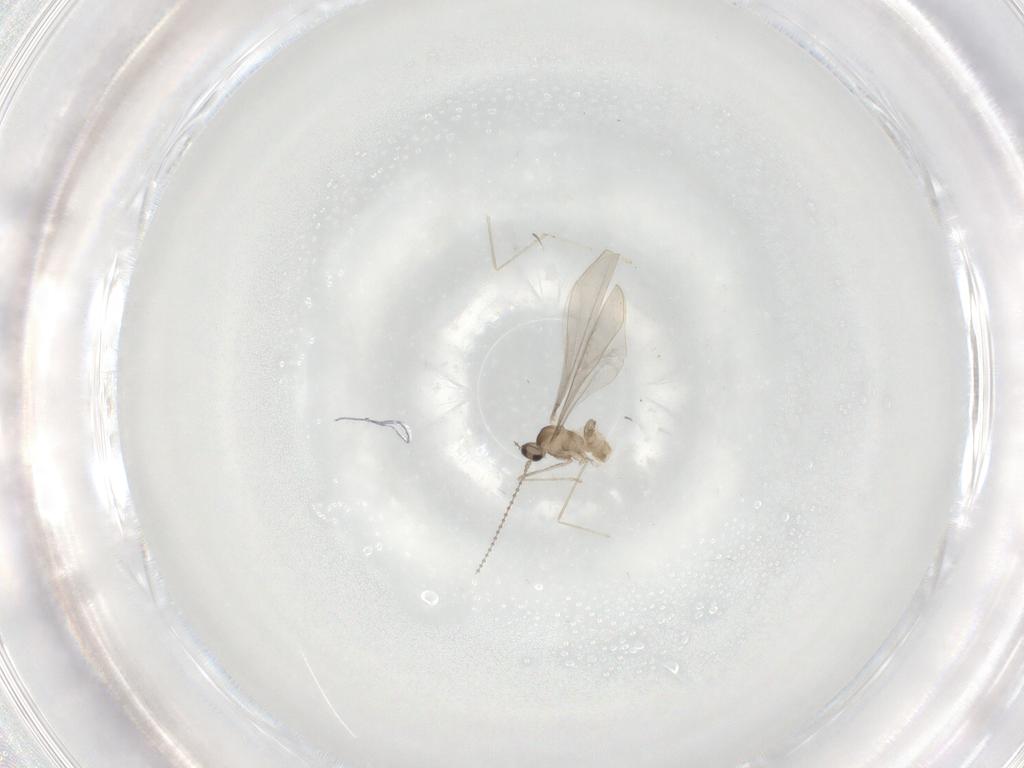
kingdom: Animalia
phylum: Arthropoda
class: Insecta
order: Diptera
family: Cecidomyiidae
